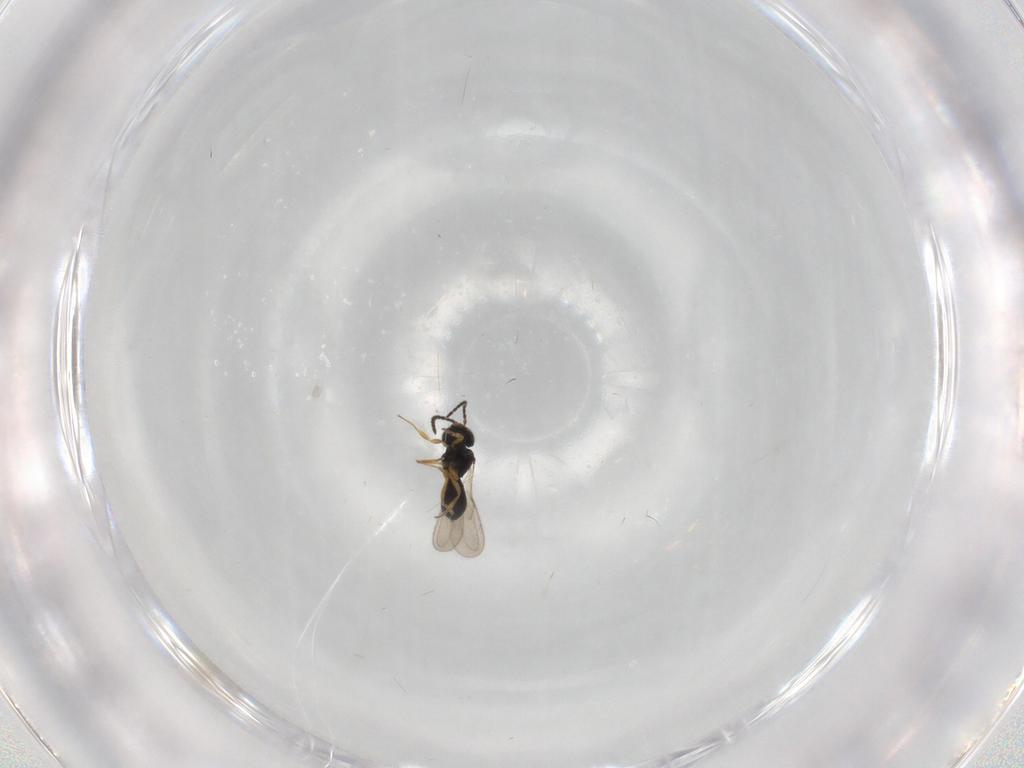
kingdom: Animalia
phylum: Arthropoda
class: Insecta
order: Hymenoptera
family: Scelionidae
